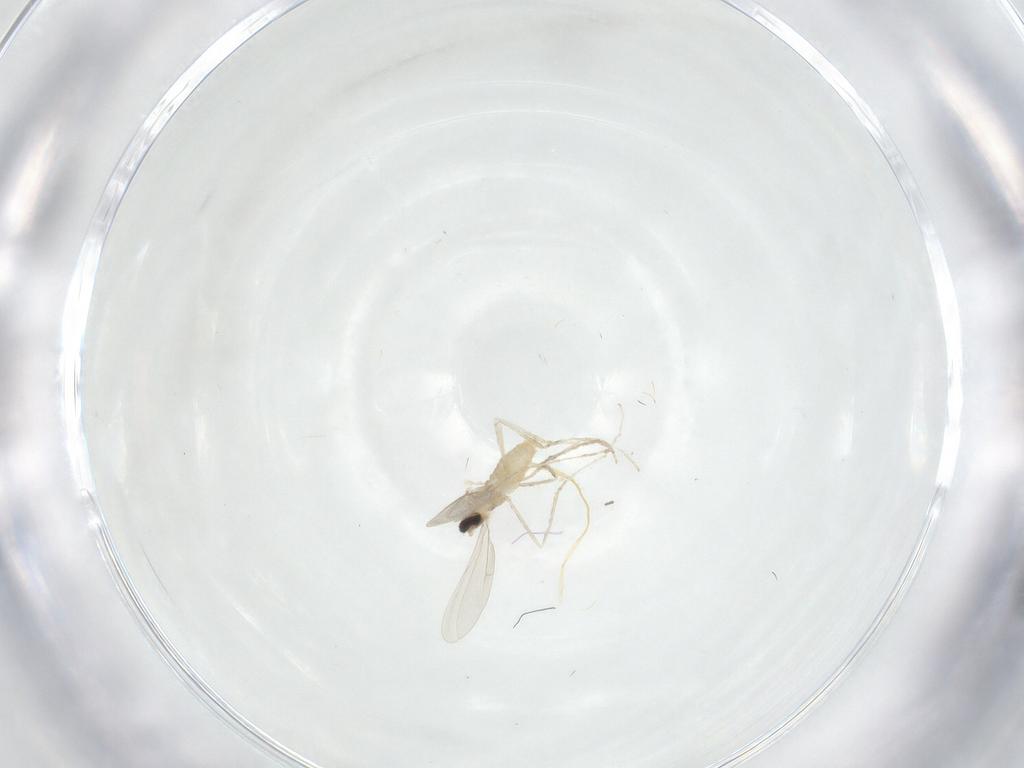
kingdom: Animalia
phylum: Arthropoda
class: Insecta
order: Diptera
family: Cecidomyiidae
